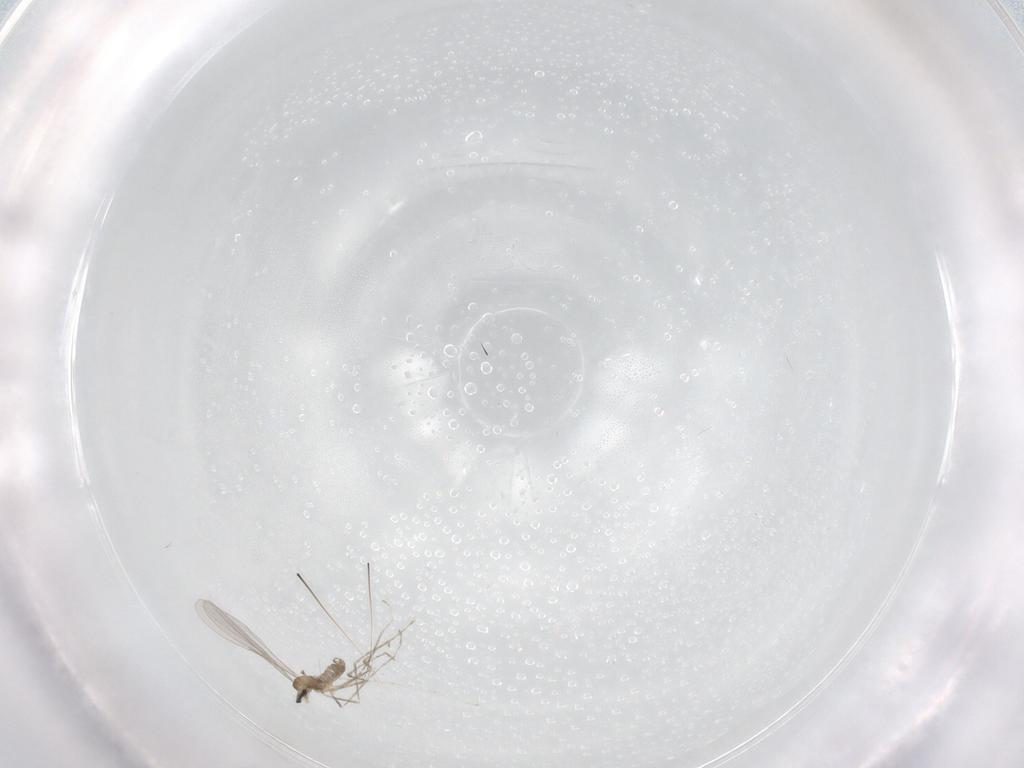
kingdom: Animalia
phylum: Arthropoda
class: Insecta
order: Diptera
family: Cecidomyiidae
